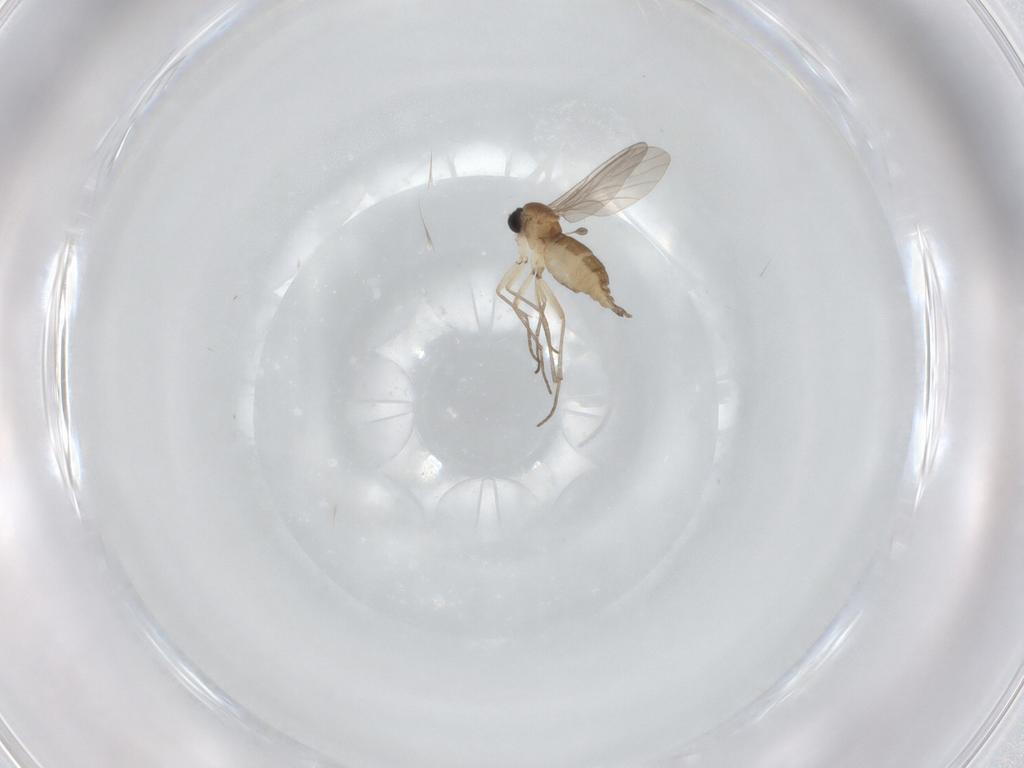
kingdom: Animalia
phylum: Arthropoda
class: Insecta
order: Diptera
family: Sciaridae
